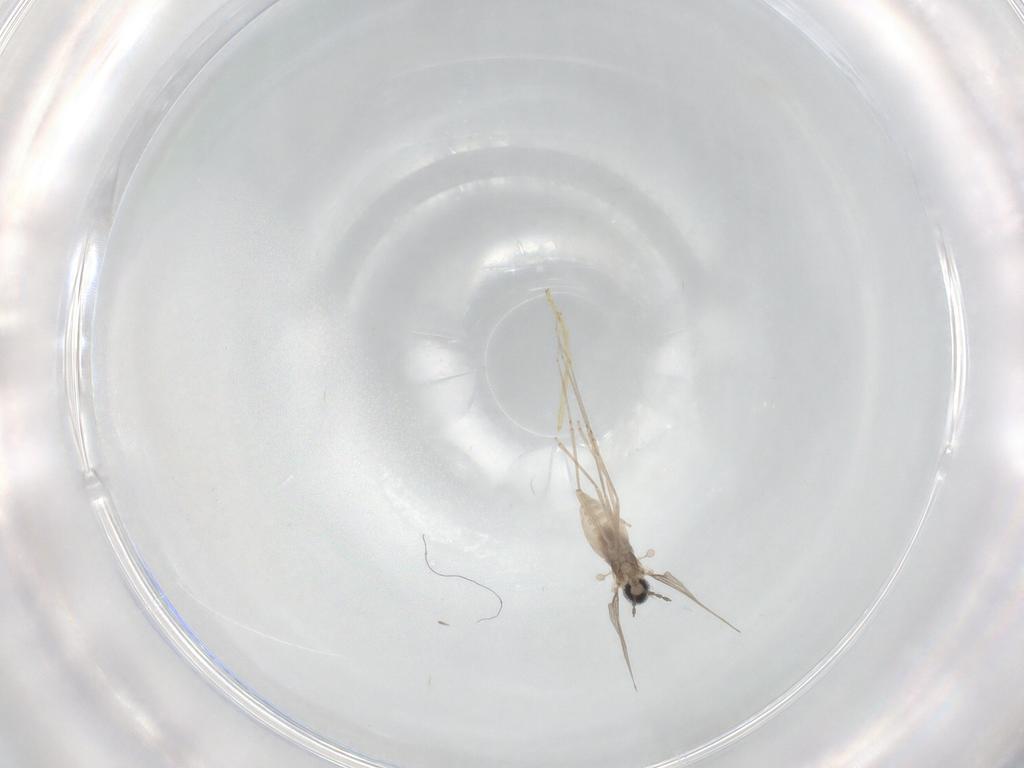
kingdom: Animalia
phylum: Arthropoda
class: Insecta
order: Diptera
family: Chironomidae
